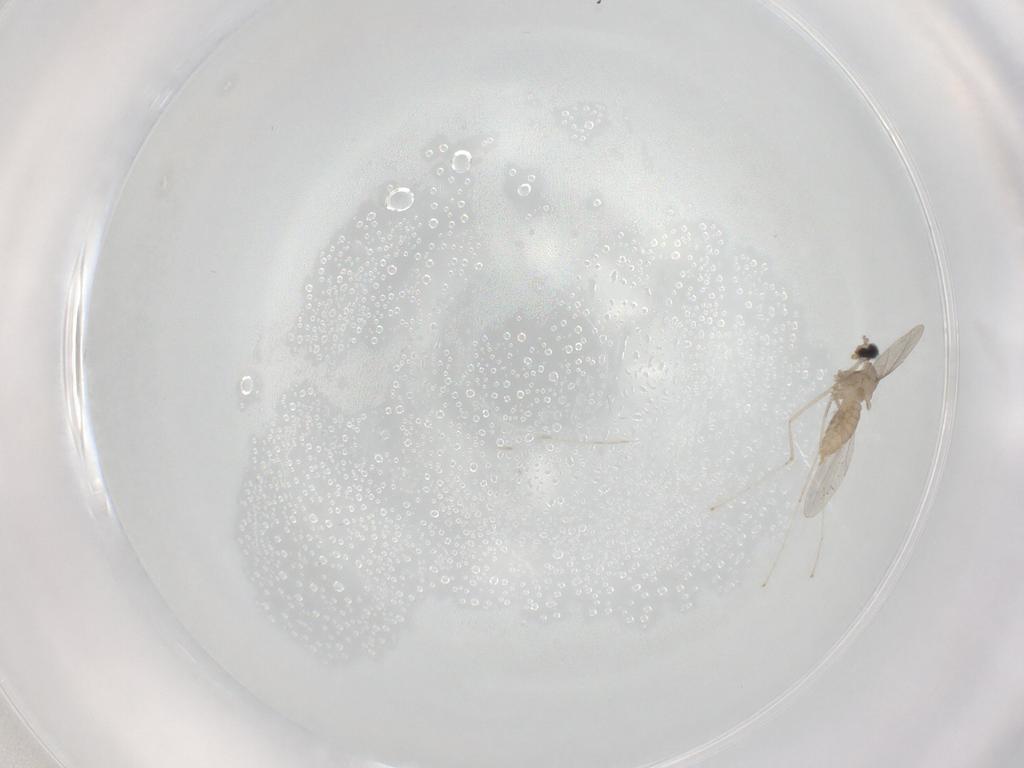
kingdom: Animalia
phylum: Arthropoda
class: Insecta
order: Diptera
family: Cecidomyiidae
